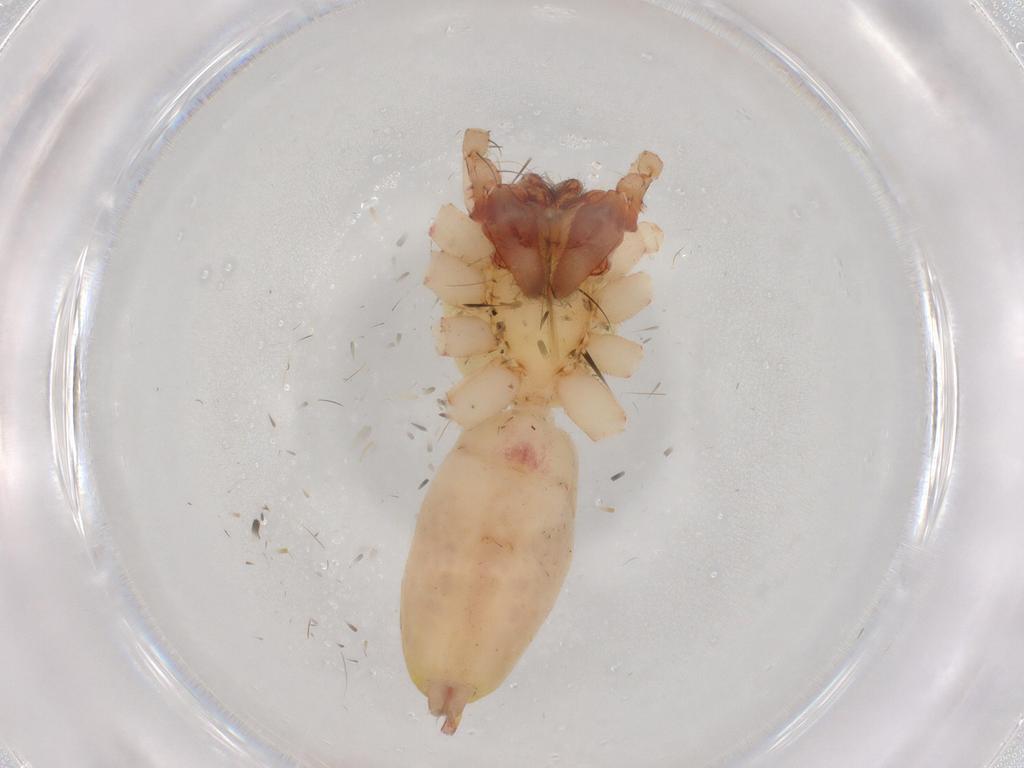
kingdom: Animalia
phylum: Arthropoda
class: Arachnida
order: Araneae
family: Anyphaenidae
